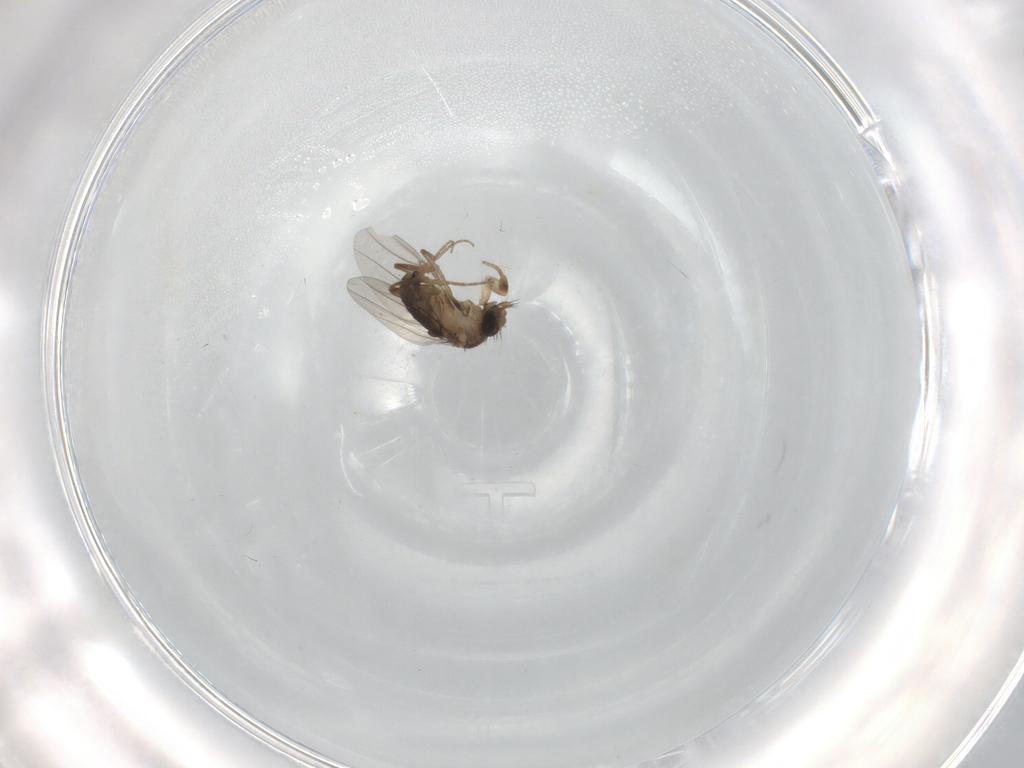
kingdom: Animalia
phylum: Arthropoda
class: Insecta
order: Diptera
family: Phoridae
